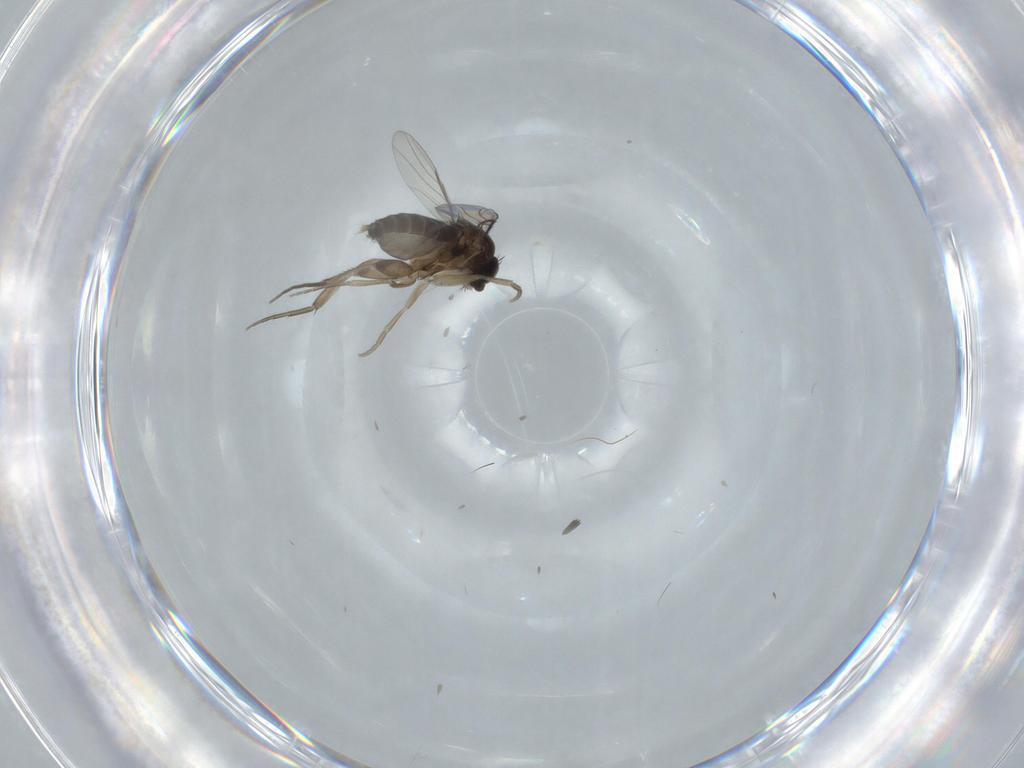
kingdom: Animalia
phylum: Arthropoda
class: Insecta
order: Diptera
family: Phoridae
